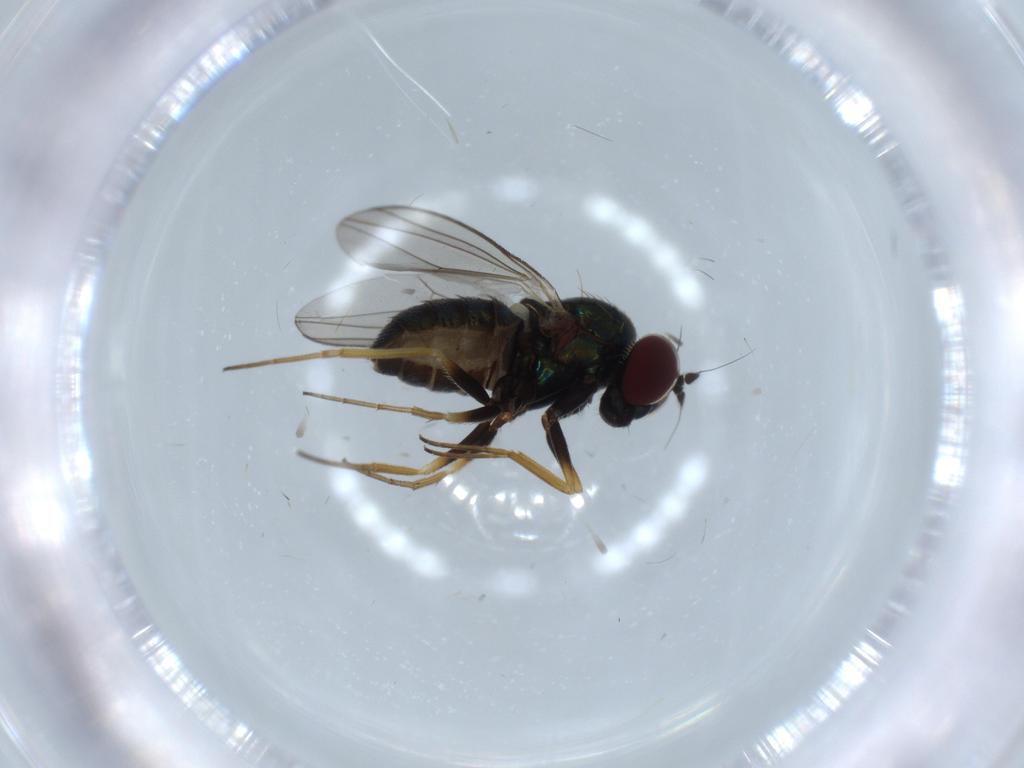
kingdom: Animalia
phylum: Arthropoda
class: Insecta
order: Diptera
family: Dolichopodidae
